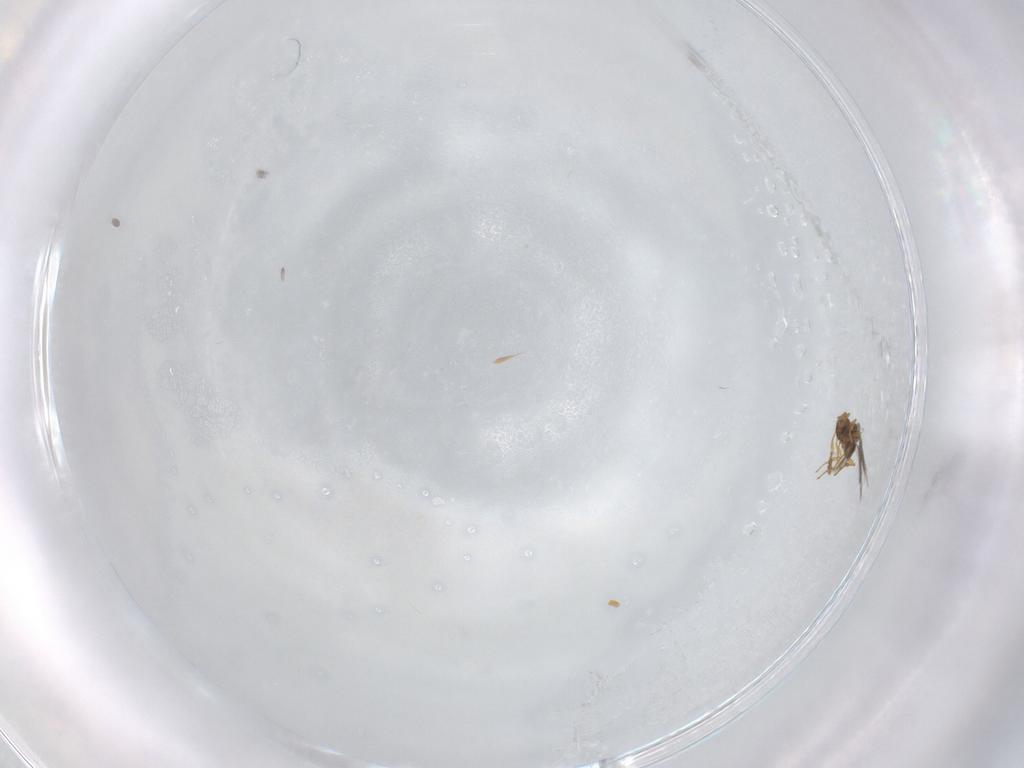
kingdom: Animalia
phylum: Arthropoda
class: Insecta
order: Hymenoptera
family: Platygastridae
